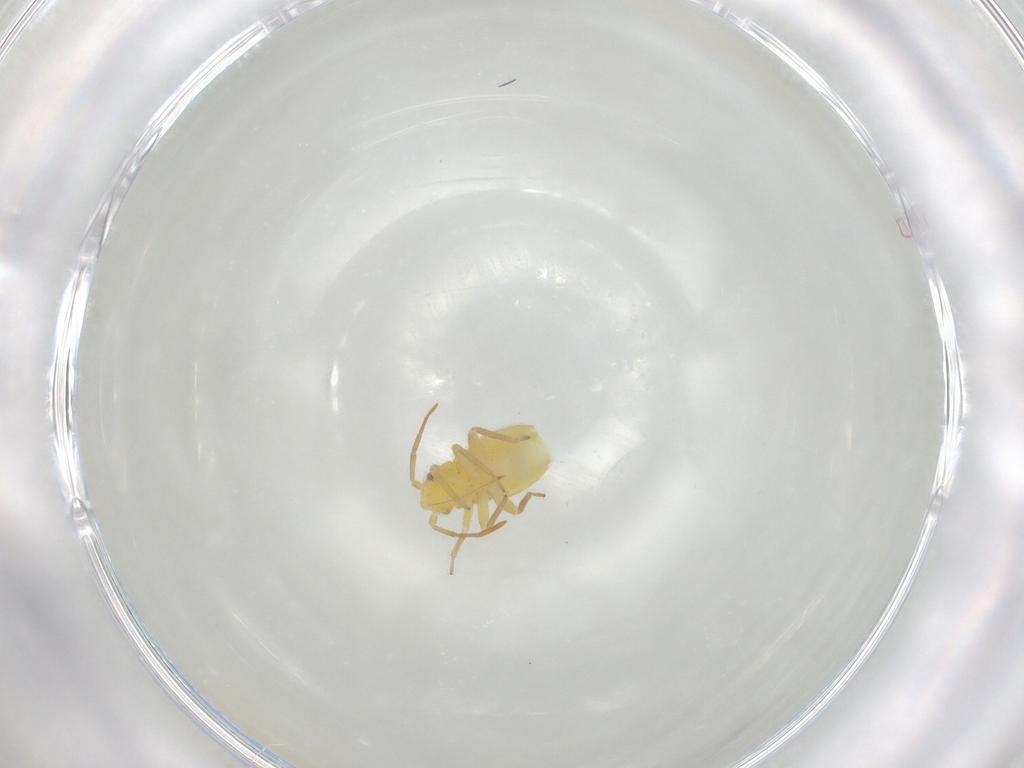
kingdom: Animalia
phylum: Arthropoda
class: Insecta
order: Hemiptera
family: Miridae
